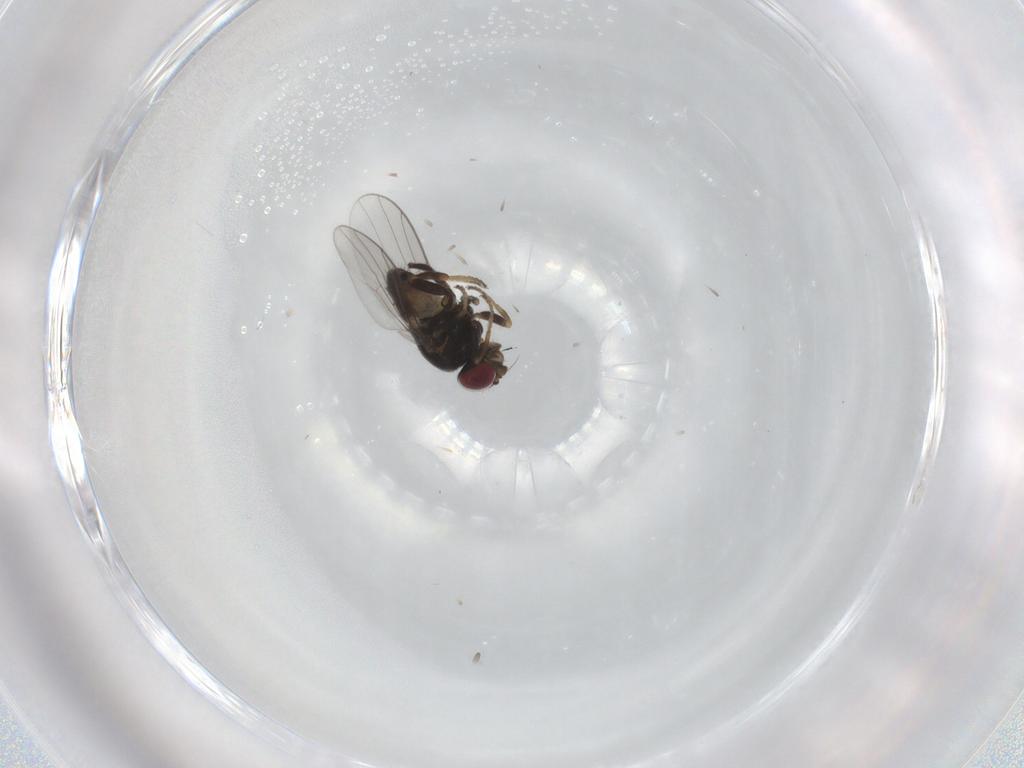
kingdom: Animalia
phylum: Arthropoda
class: Insecta
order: Diptera
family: Chloropidae
